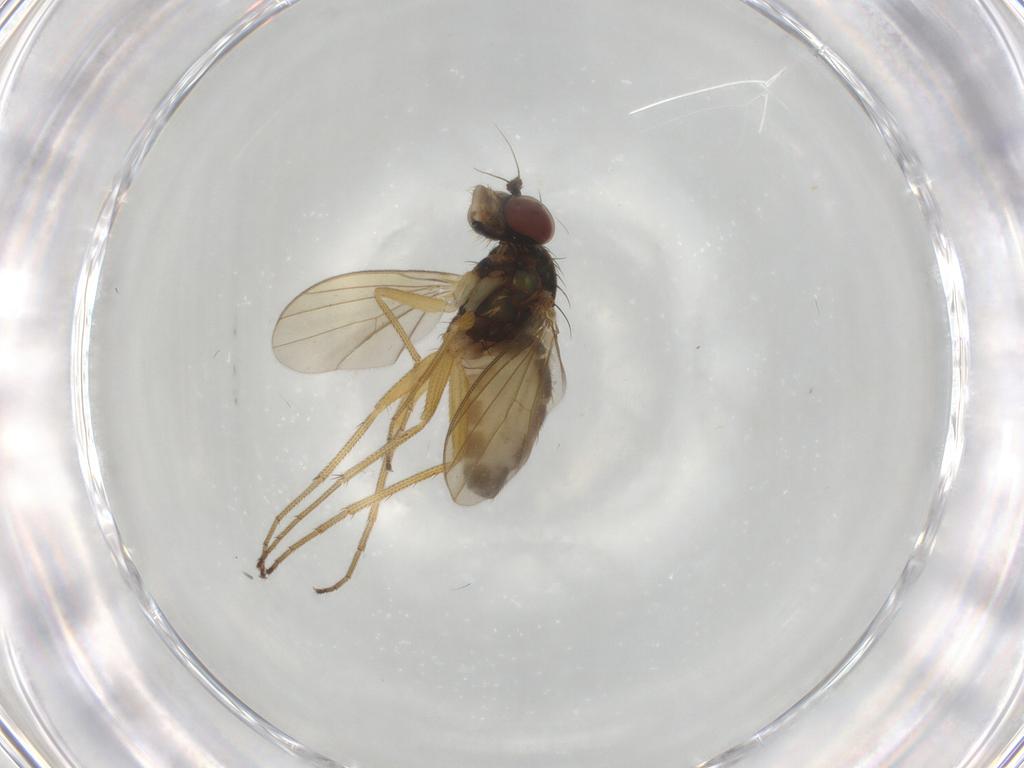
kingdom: Animalia
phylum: Arthropoda
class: Insecta
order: Diptera
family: Dolichopodidae
